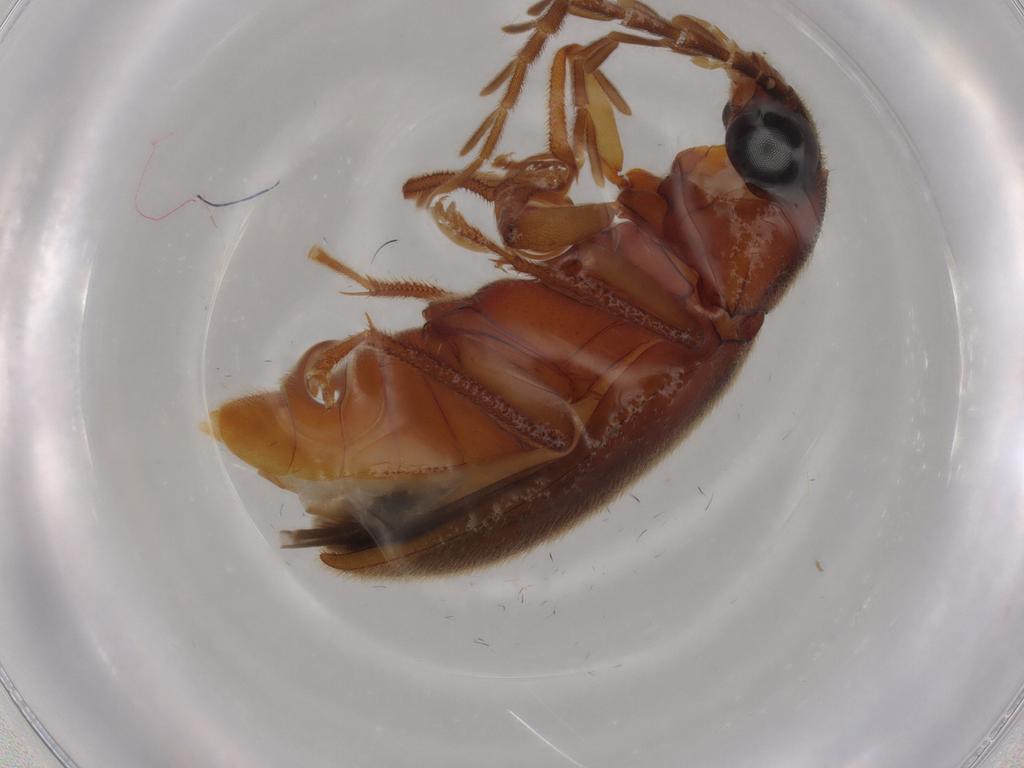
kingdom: Animalia
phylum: Arthropoda
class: Insecta
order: Coleoptera
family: Ptilodactylidae
